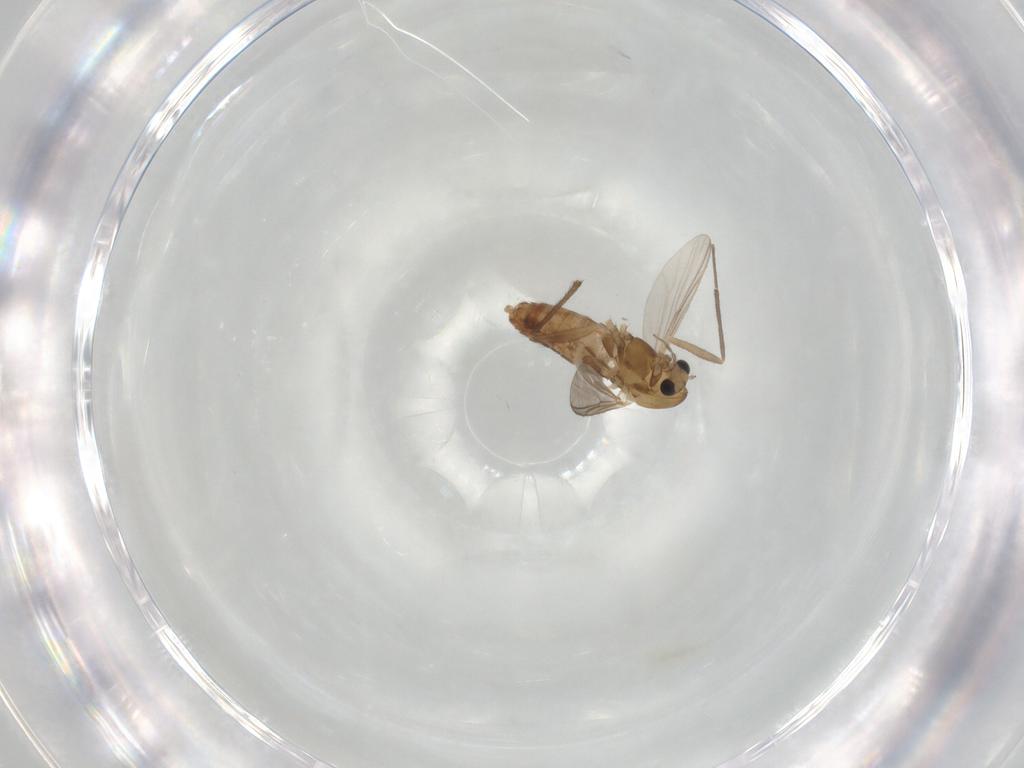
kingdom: Animalia
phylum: Arthropoda
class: Insecta
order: Diptera
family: Chironomidae
